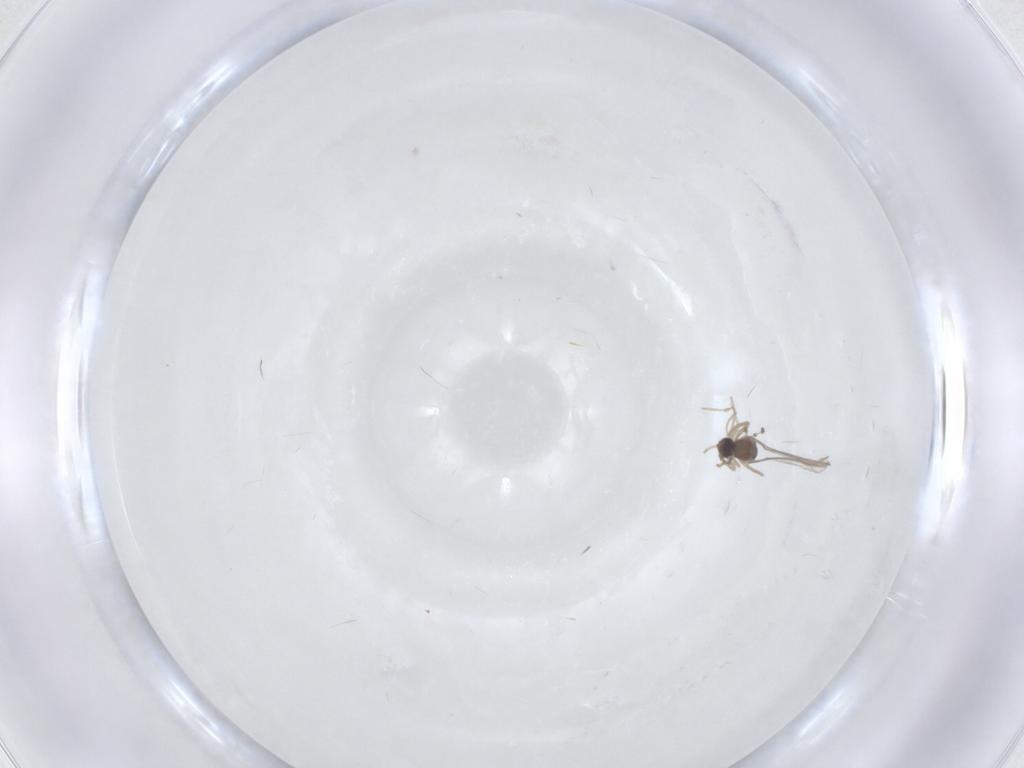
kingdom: Animalia
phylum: Arthropoda
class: Insecta
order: Diptera
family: Cecidomyiidae
